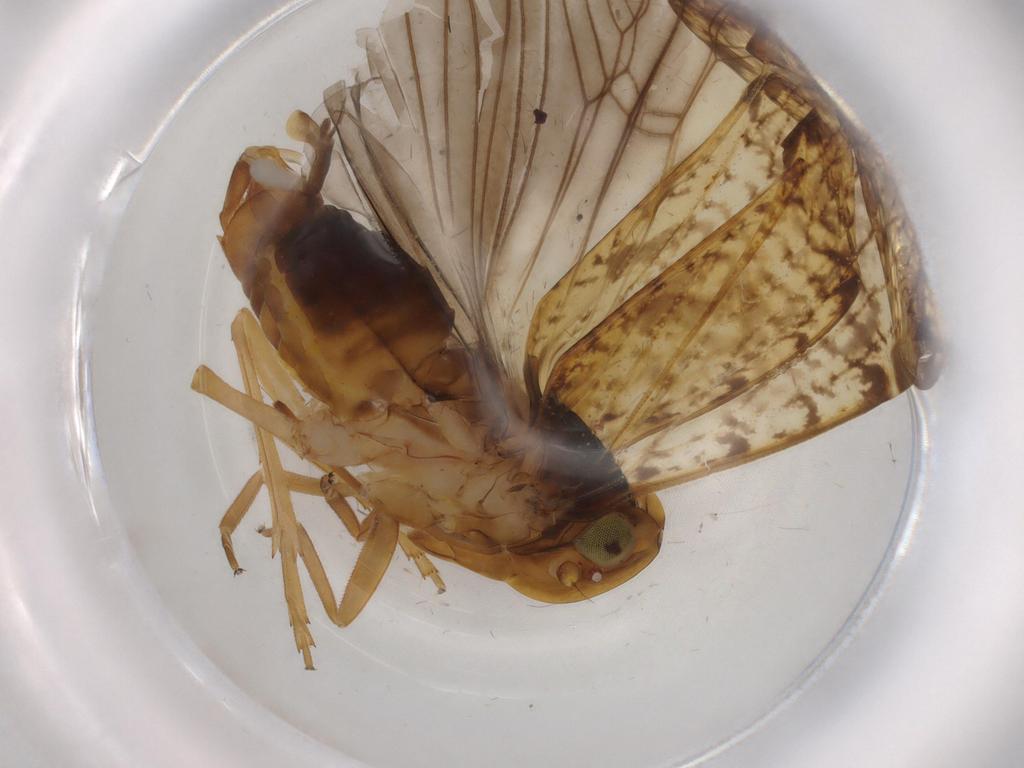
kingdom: Animalia
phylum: Arthropoda
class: Insecta
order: Hemiptera
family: Cixiidae
